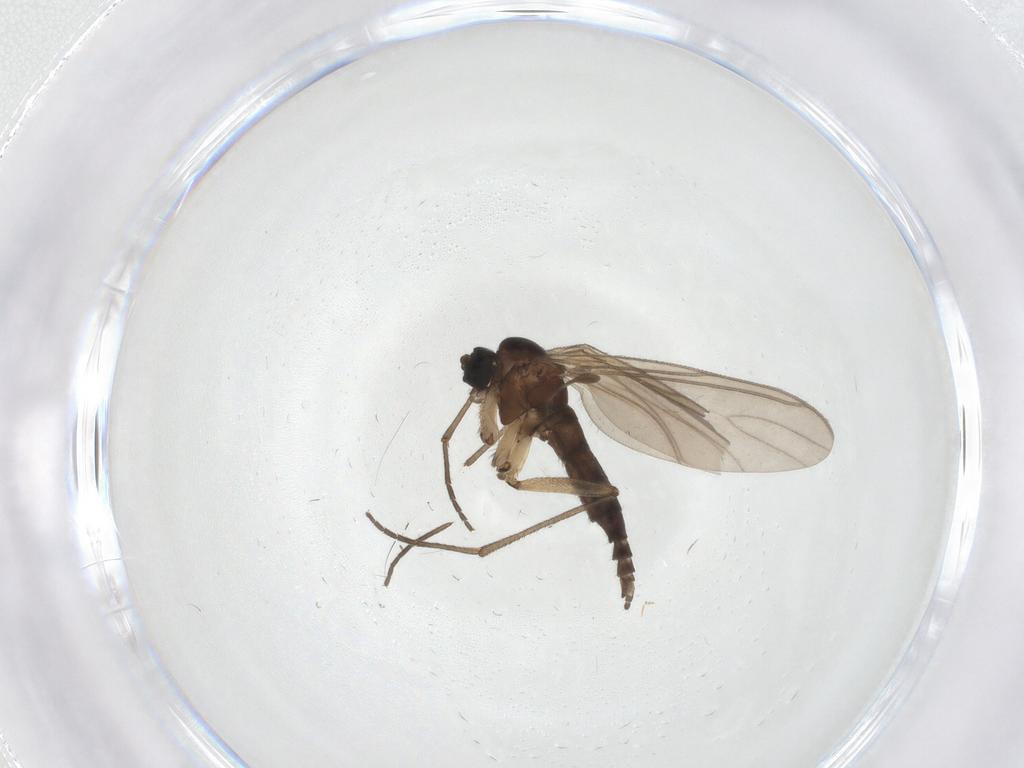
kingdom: Animalia
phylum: Arthropoda
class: Insecta
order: Diptera
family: Sciaridae
